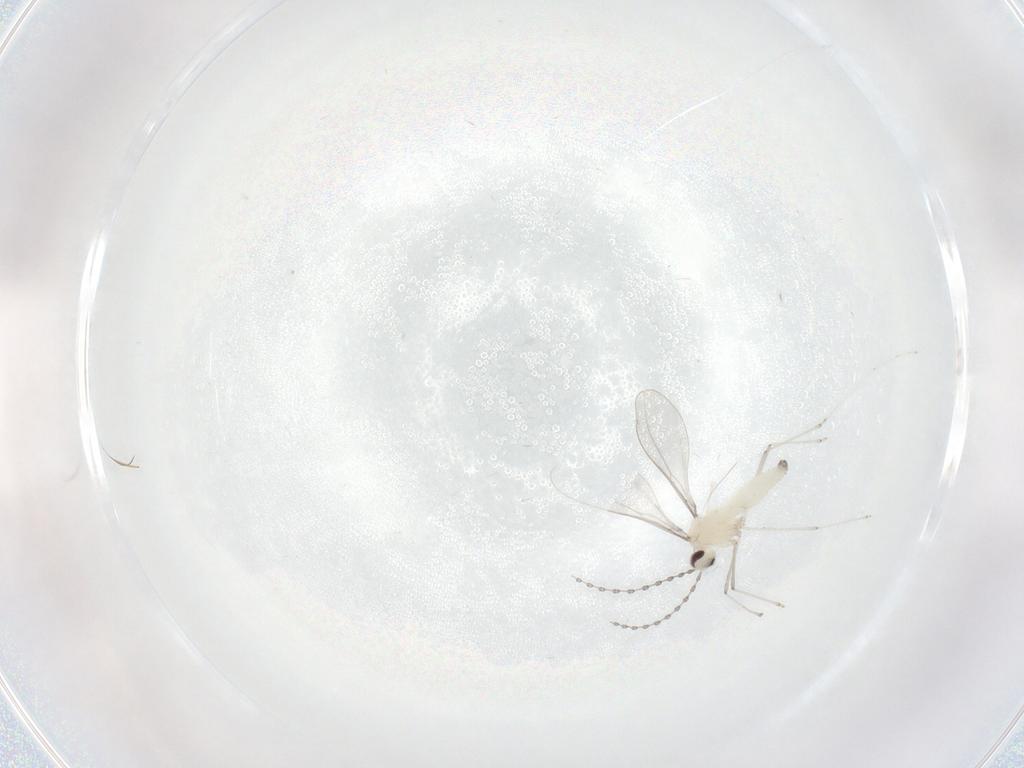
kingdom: Animalia
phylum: Arthropoda
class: Insecta
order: Diptera
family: Cecidomyiidae
